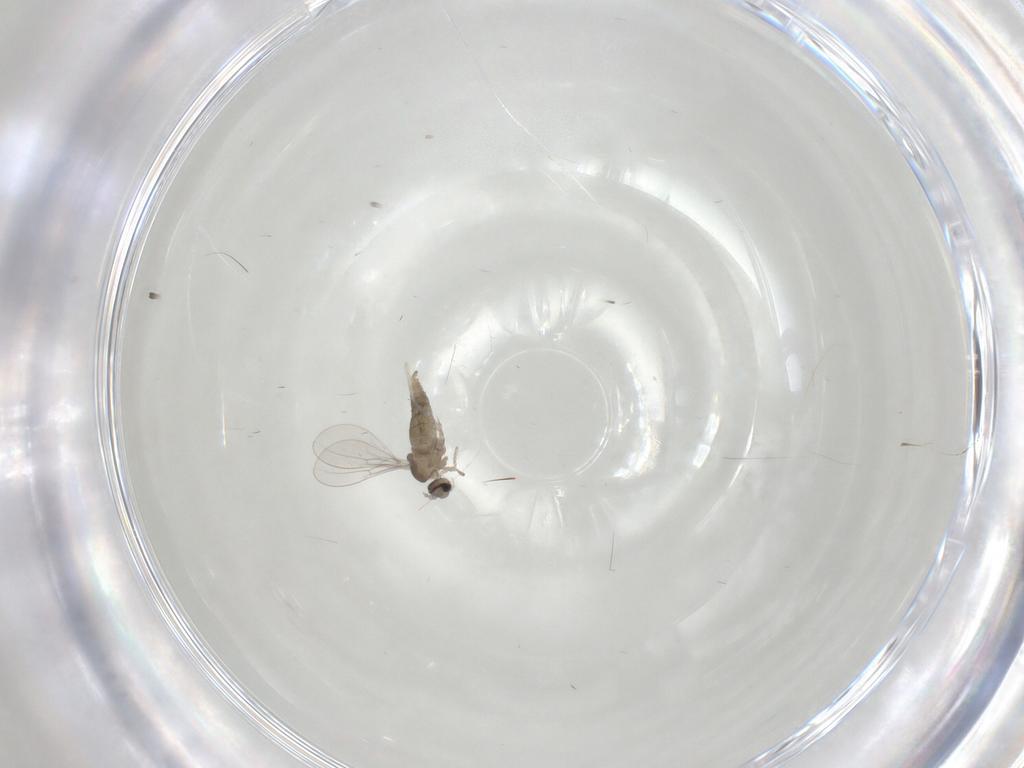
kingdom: Animalia
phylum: Arthropoda
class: Insecta
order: Diptera
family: Cecidomyiidae
